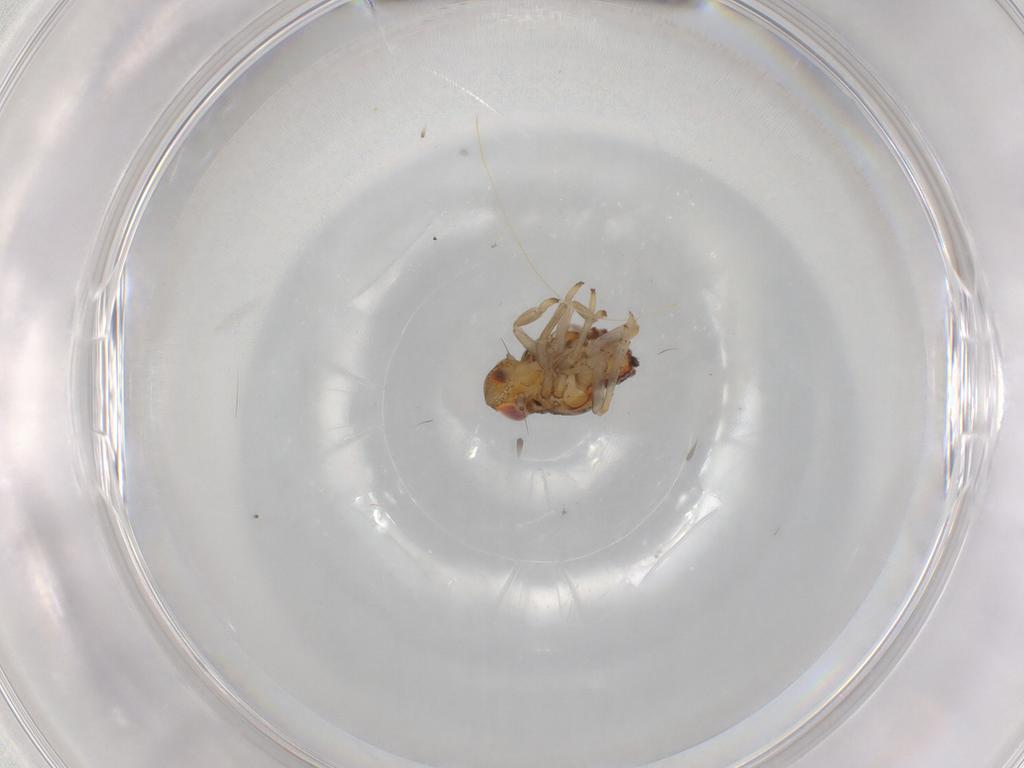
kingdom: Animalia
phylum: Arthropoda
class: Insecta
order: Hemiptera
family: Issidae
